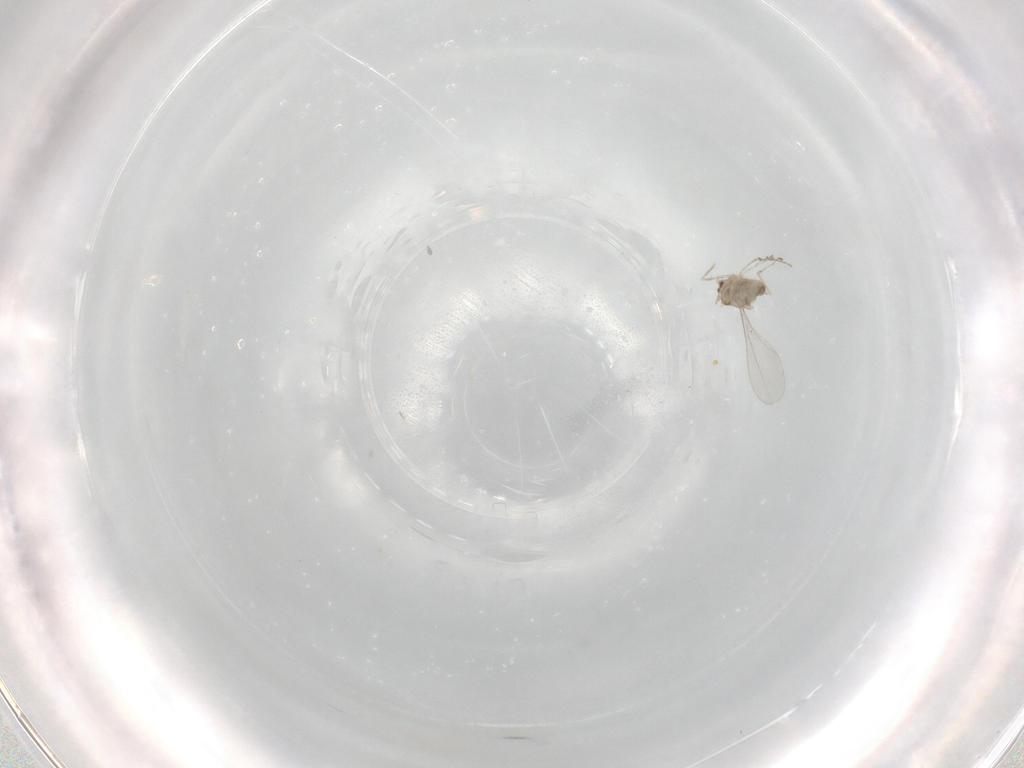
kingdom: Animalia
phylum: Arthropoda
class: Insecta
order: Diptera
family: Cecidomyiidae
